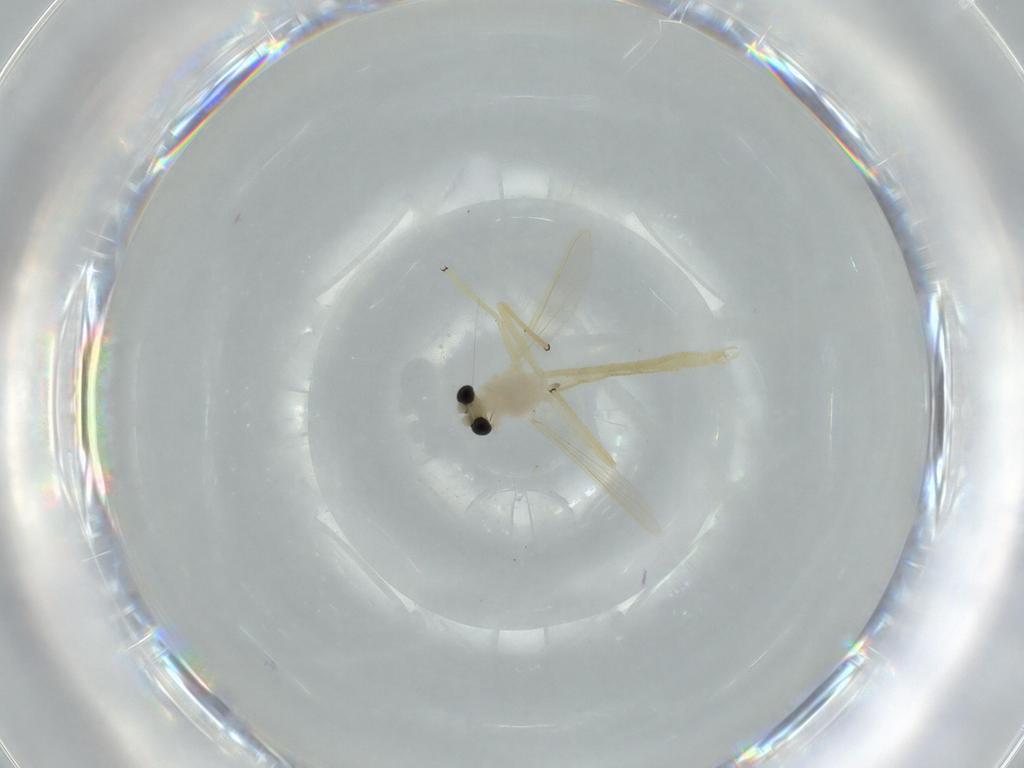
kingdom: Animalia
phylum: Arthropoda
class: Insecta
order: Diptera
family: Chironomidae
